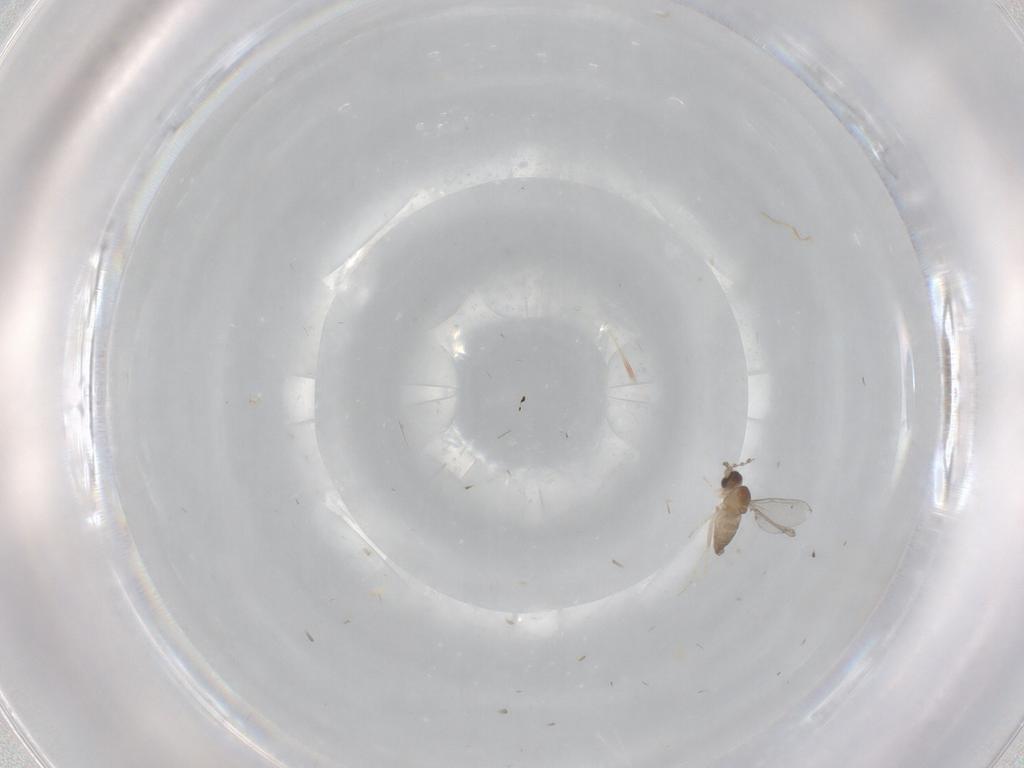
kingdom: Animalia
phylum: Arthropoda
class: Insecta
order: Diptera
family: Cecidomyiidae
